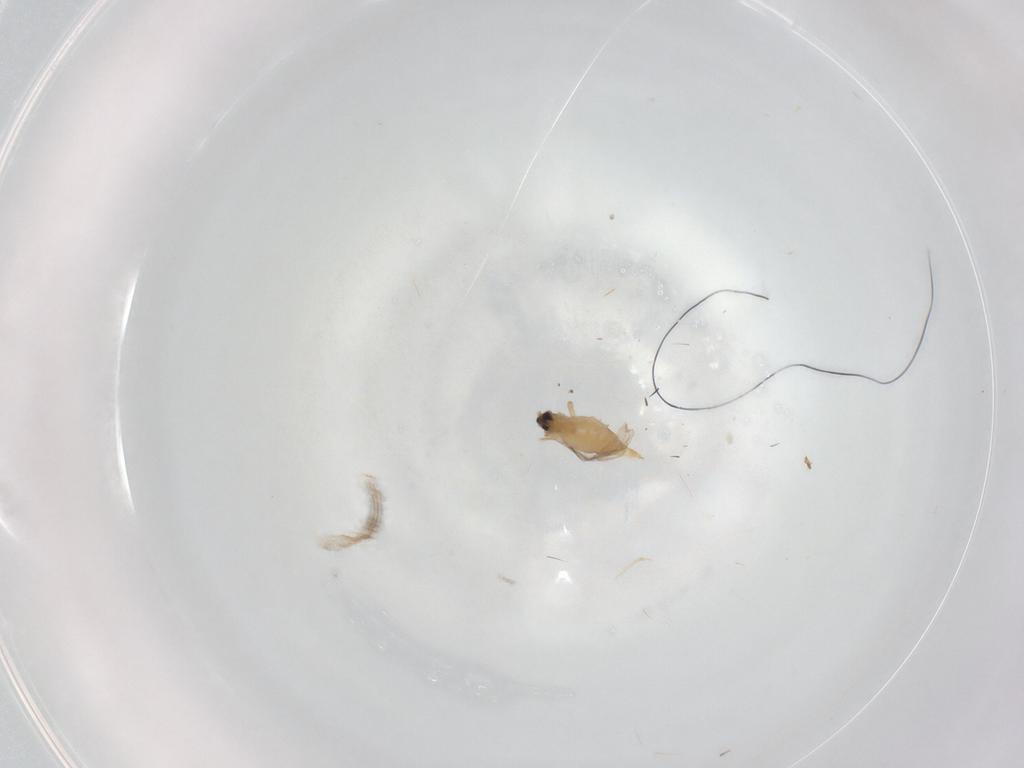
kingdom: Animalia
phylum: Arthropoda
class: Insecta
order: Diptera
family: Cecidomyiidae
